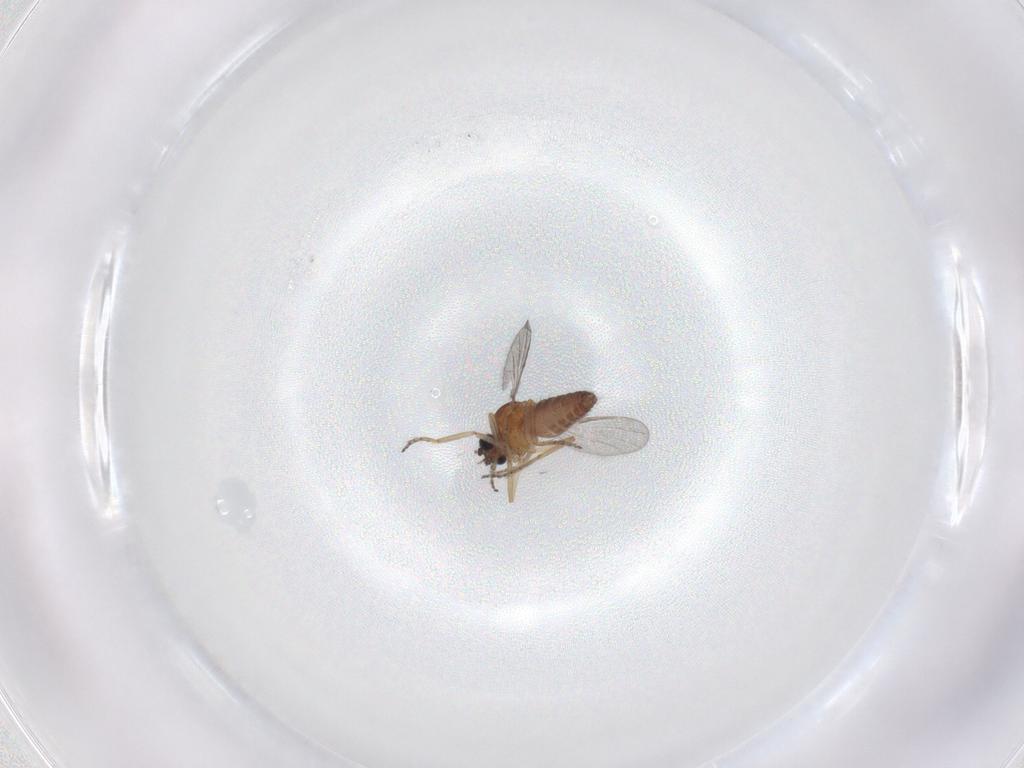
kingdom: Animalia
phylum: Arthropoda
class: Insecta
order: Diptera
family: Ceratopogonidae
